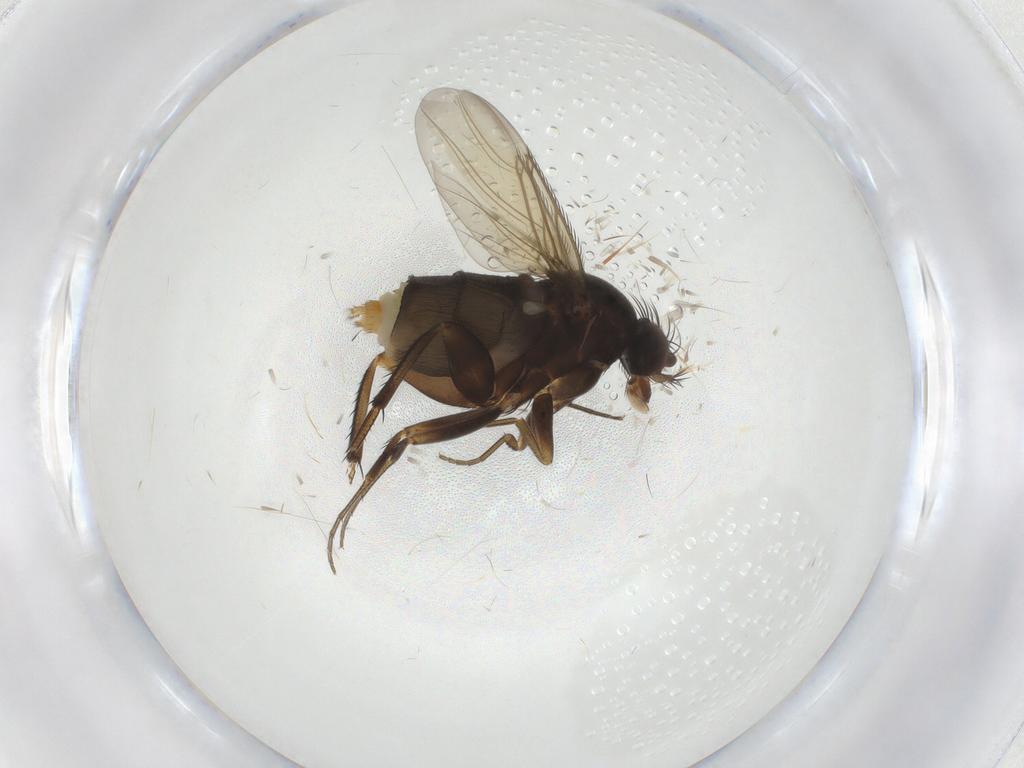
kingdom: Animalia
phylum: Arthropoda
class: Insecta
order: Diptera
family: Phoridae
